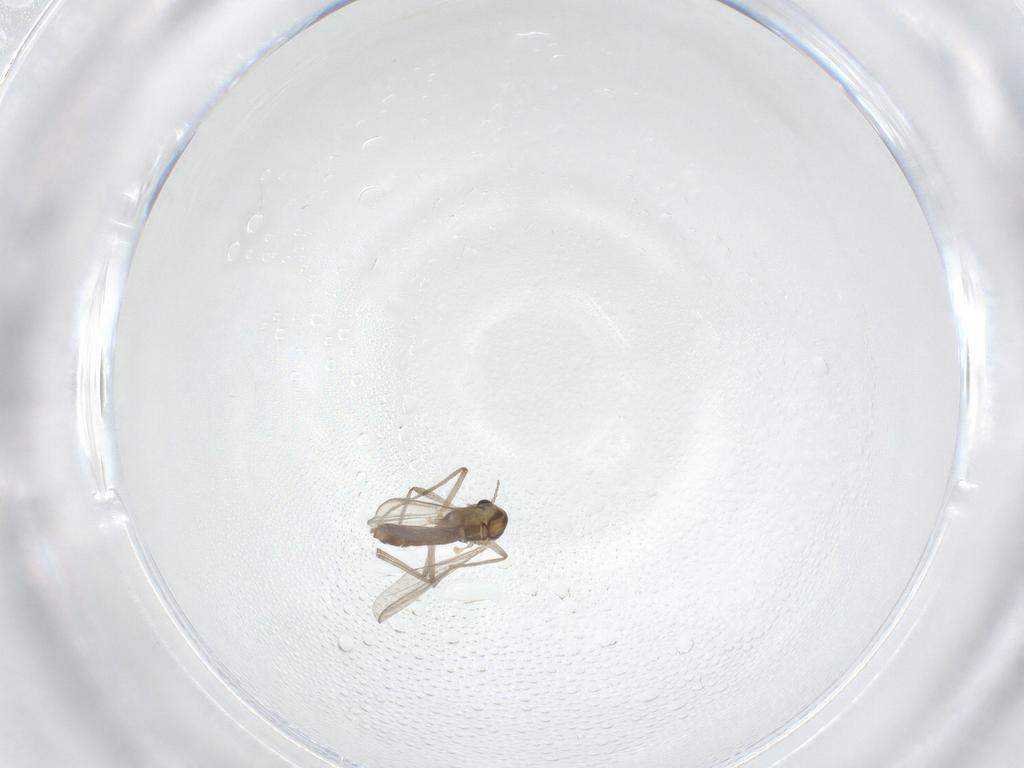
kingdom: Animalia
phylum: Arthropoda
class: Insecta
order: Diptera
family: Chironomidae
